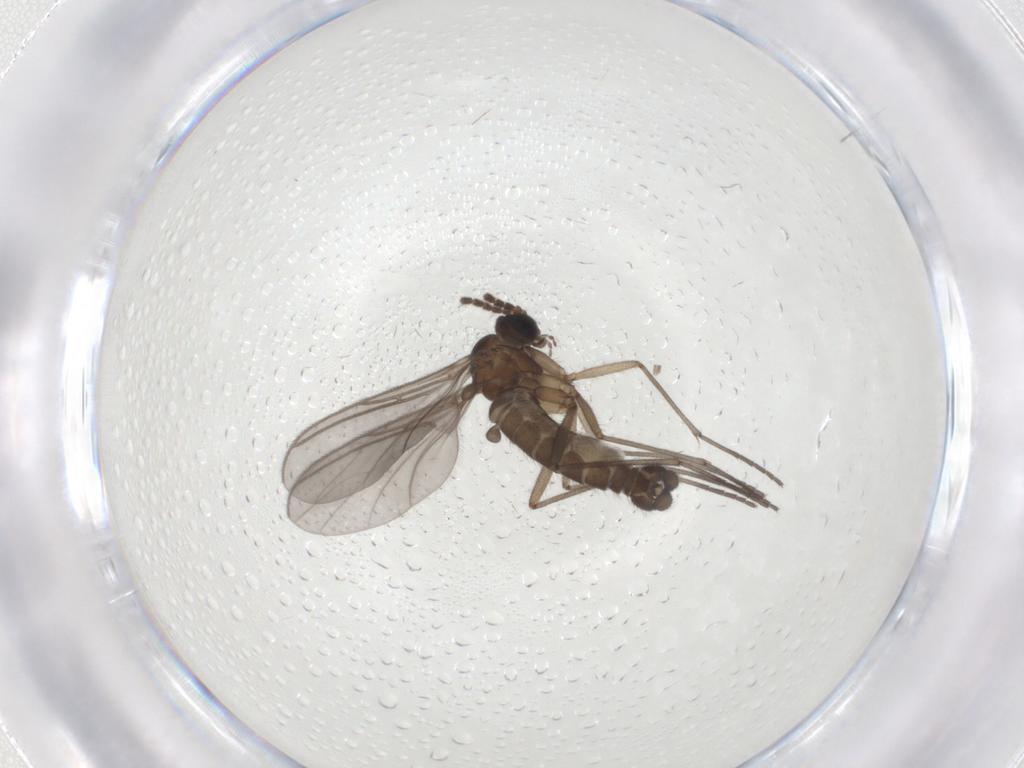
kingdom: Animalia
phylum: Arthropoda
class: Insecta
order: Diptera
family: Sciaridae
